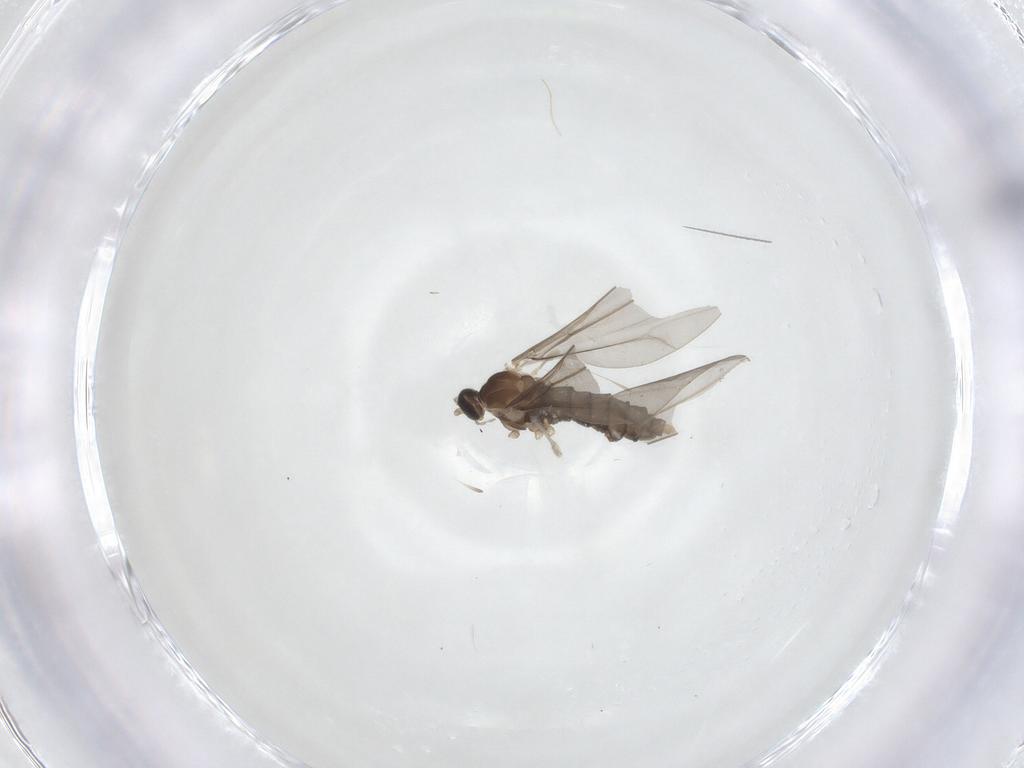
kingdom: Animalia
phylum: Arthropoda
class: Insecta
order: Diptera
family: Cecidomyiidae
